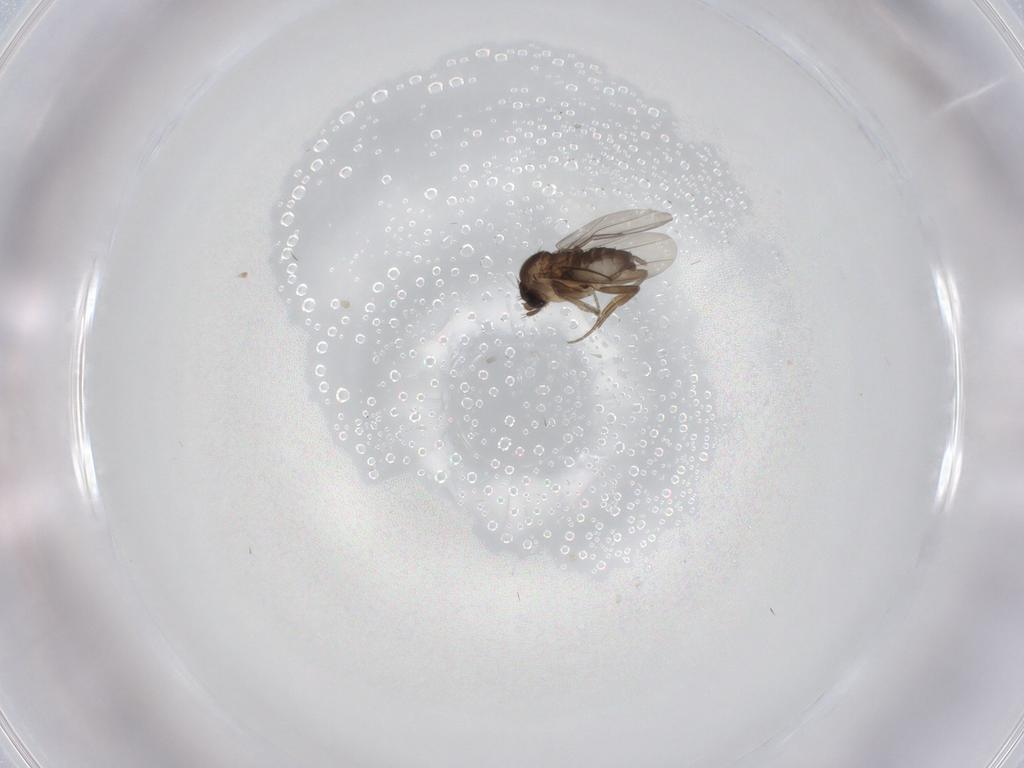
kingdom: Animalia
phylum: Arthropoda
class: Insecta
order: Diptera
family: Phoridae
